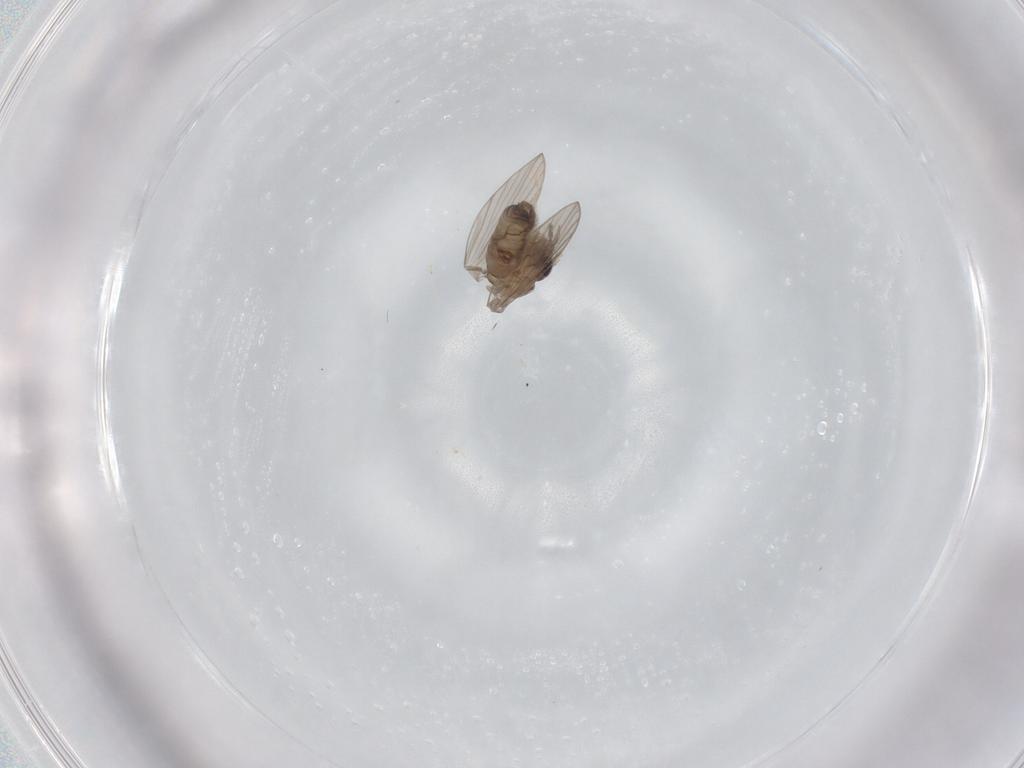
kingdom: Animalia
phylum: Arthropoda
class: Insecta
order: Diptera
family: Psychodidae
